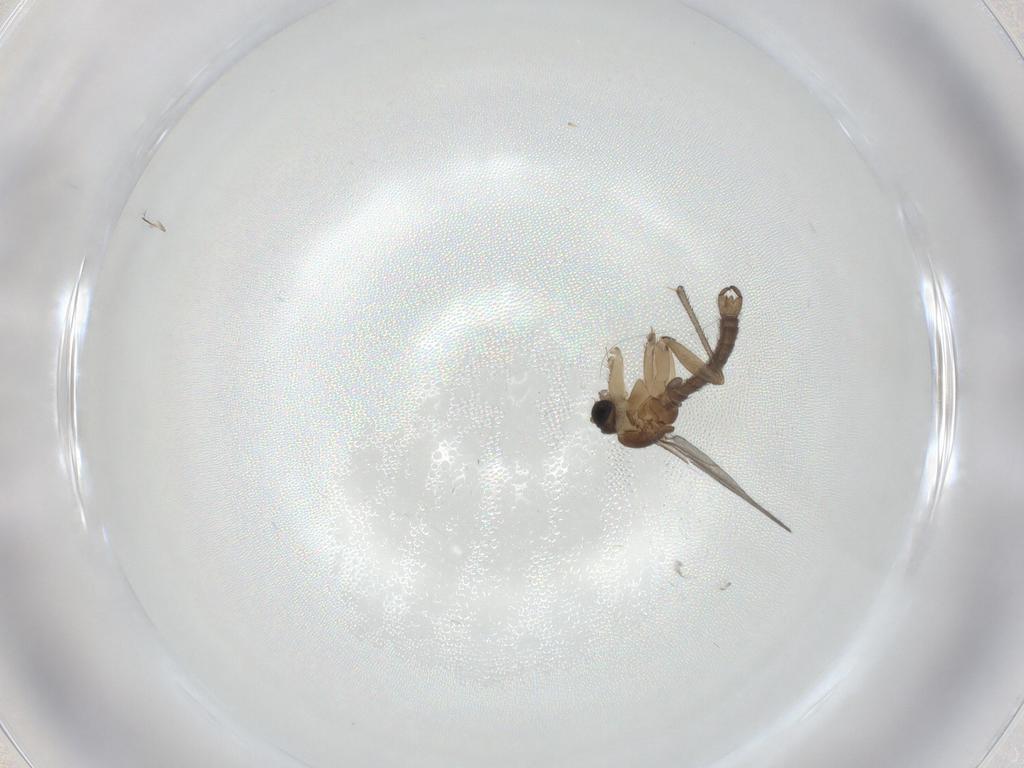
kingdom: Animalia
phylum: Arthropoda
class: Insecta
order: Diptera
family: Sciaridae
